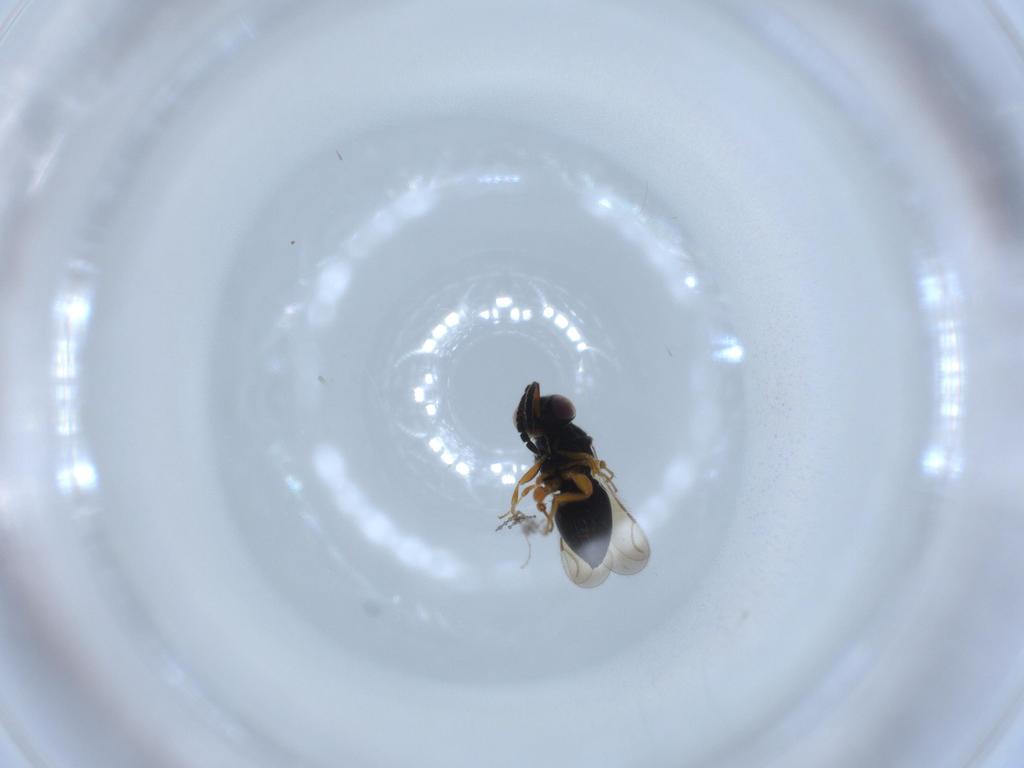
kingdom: Animalia
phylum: Arthropoda
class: Insecta
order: Hymenoptera
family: Ceraphronidae
